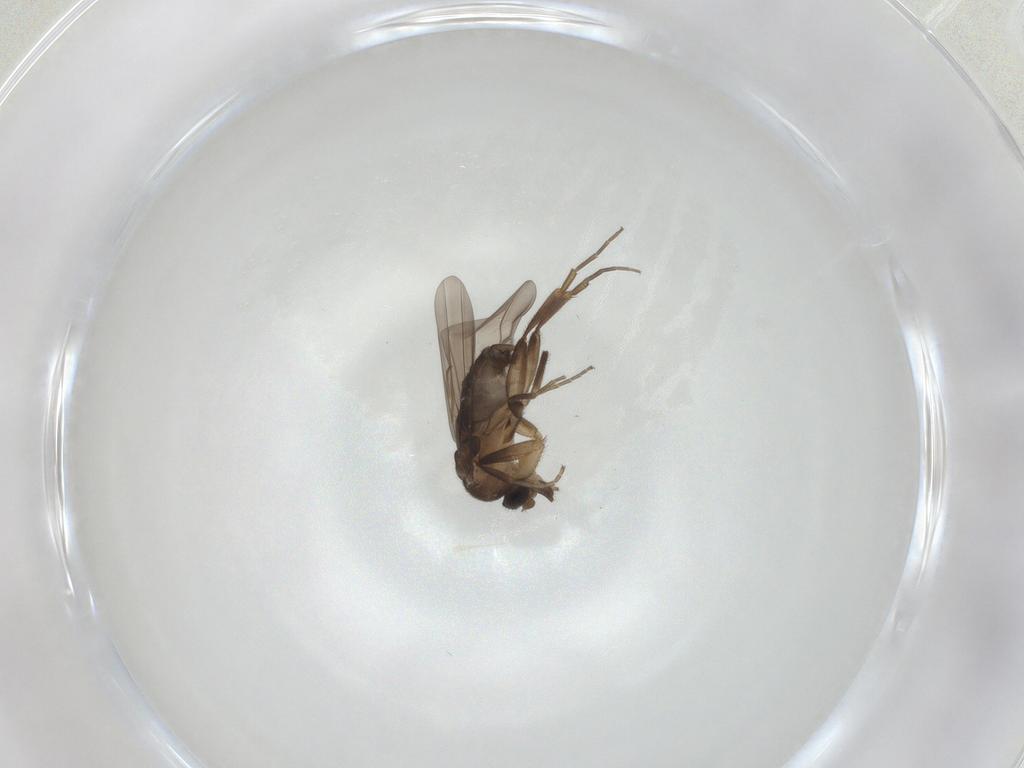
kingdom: Animalia
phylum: Arthropoda
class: Insecta
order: Diptera
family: Phoridae
